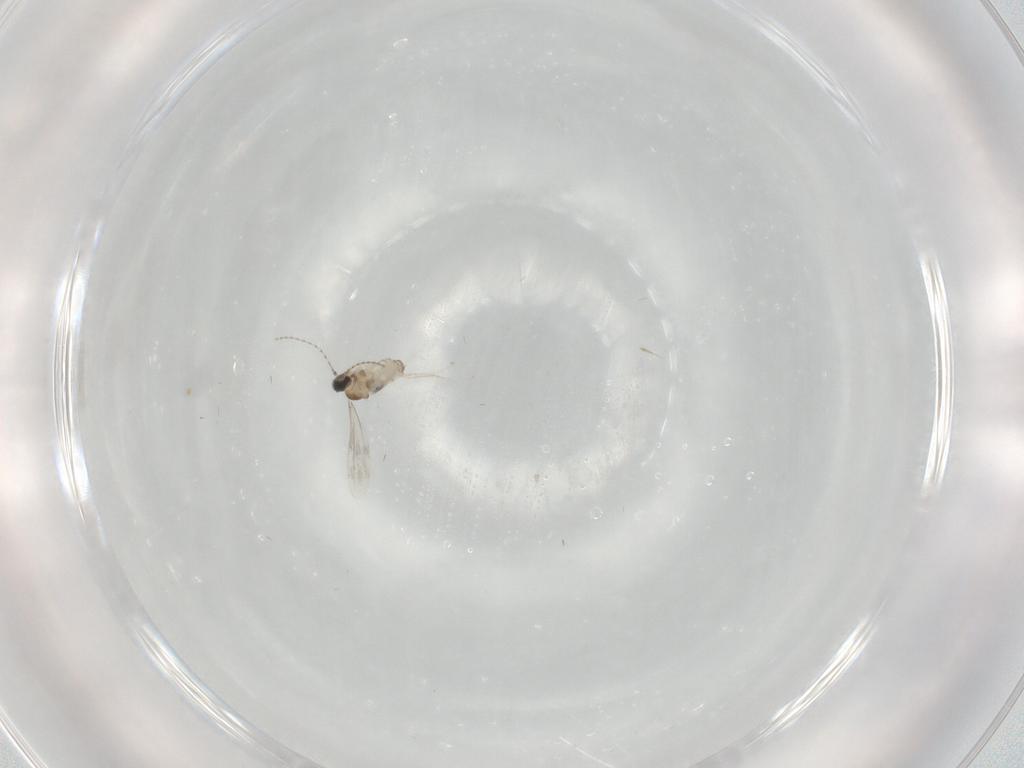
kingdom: Animalia
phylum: Arthropoda
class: Insecta
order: Diptera
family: Cecidomyiidae
